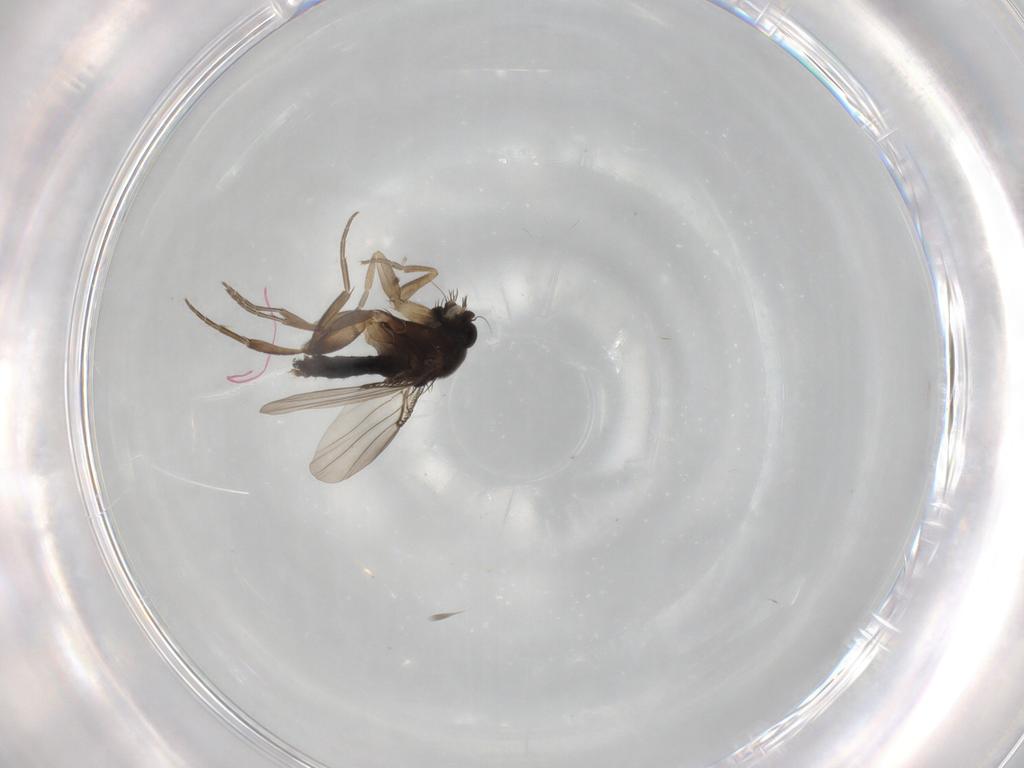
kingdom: Animalia
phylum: Arthropoda
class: Insecta
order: Diptera
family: Phoridae
